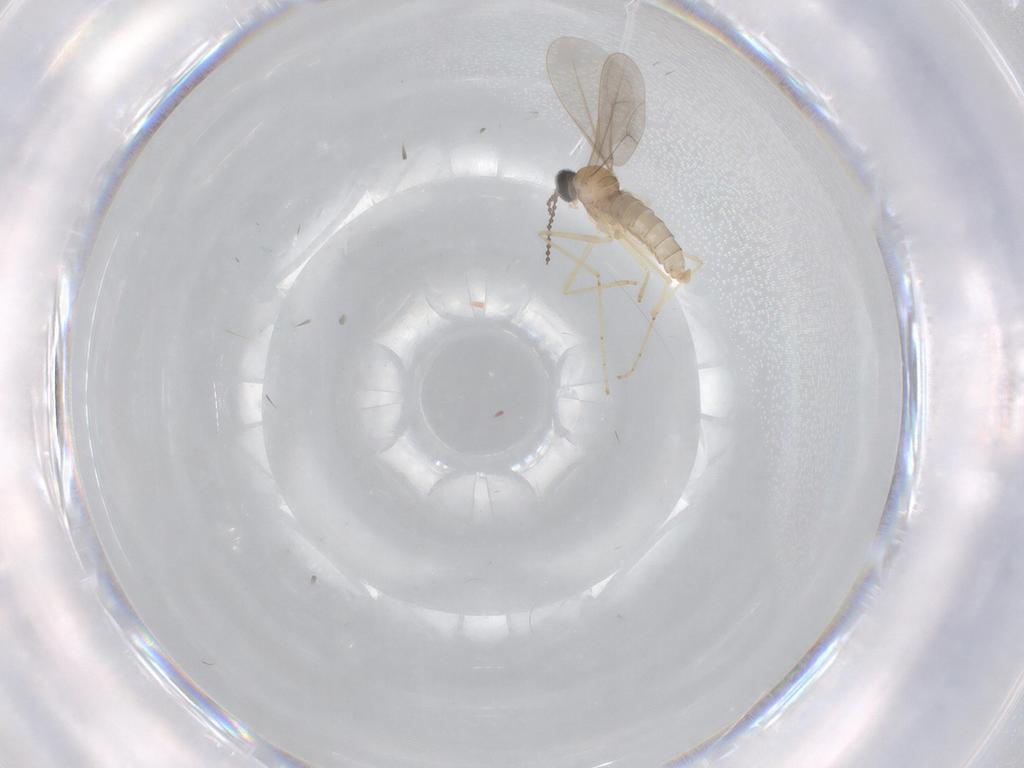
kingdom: Animalia
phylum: Arthropoda
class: Insecta
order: Diptera
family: Cecidomyiidae
